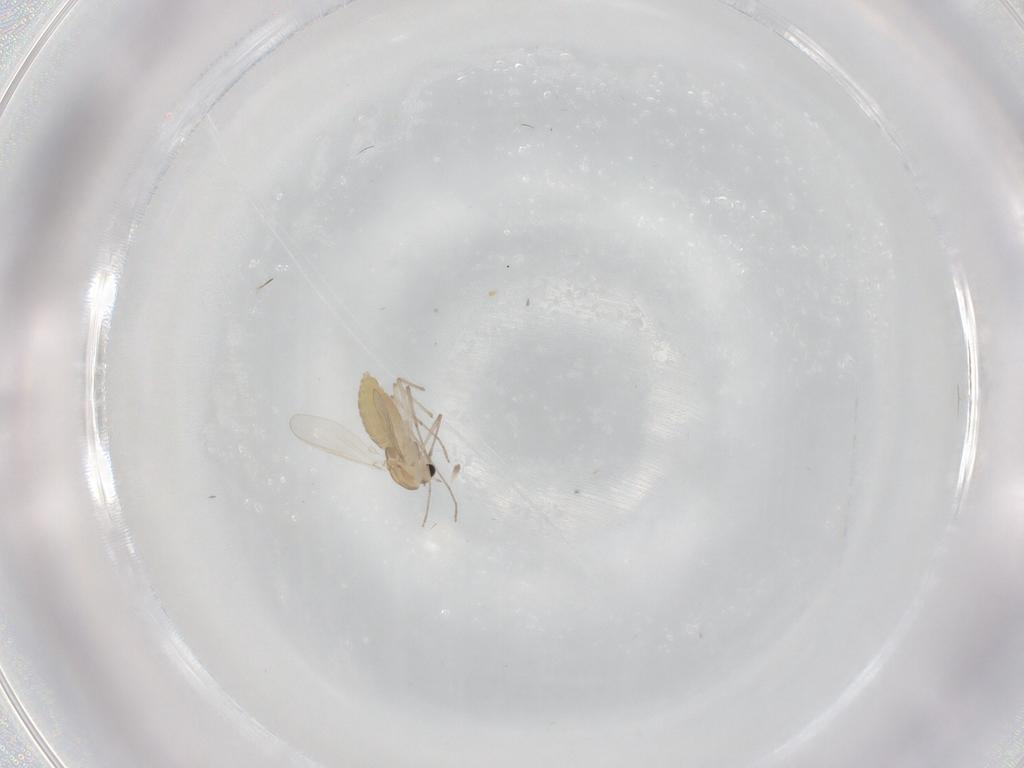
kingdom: Animalia
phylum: Arthropoda
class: Insecta
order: Diptera
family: Chironomidae
